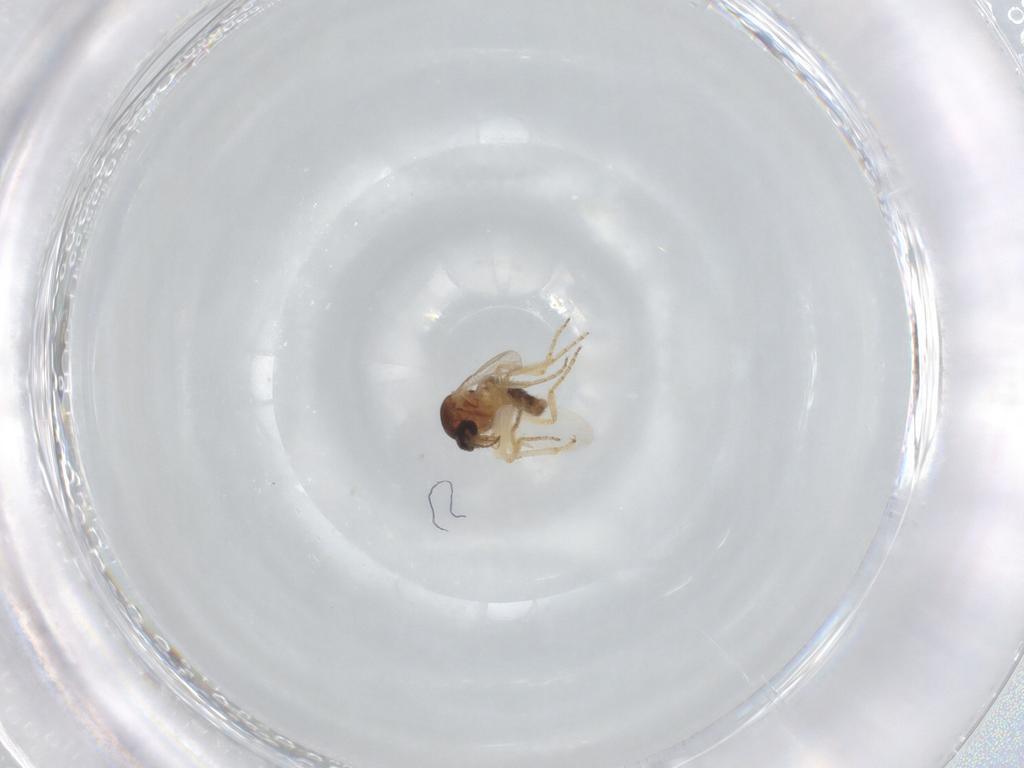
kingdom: Animalia
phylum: Arthropoda
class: Insecta
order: Diptera
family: Ceratopogonidae
